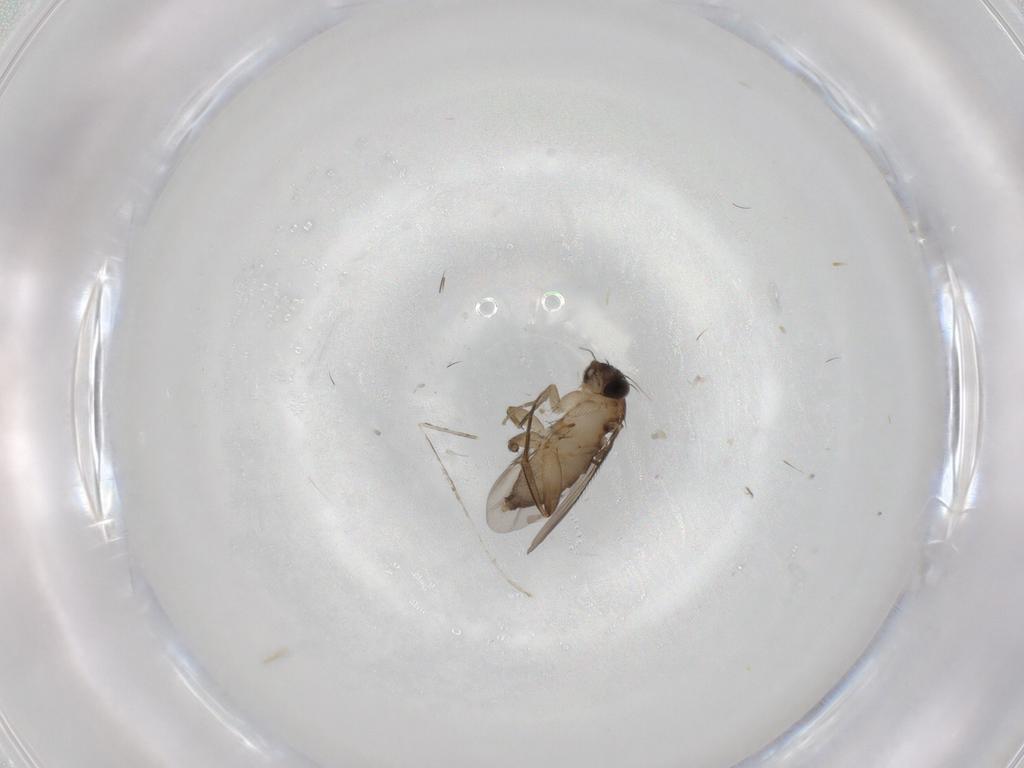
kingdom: Animalia
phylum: Arthropoda
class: Insecta
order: Diptera
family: Phoridae
